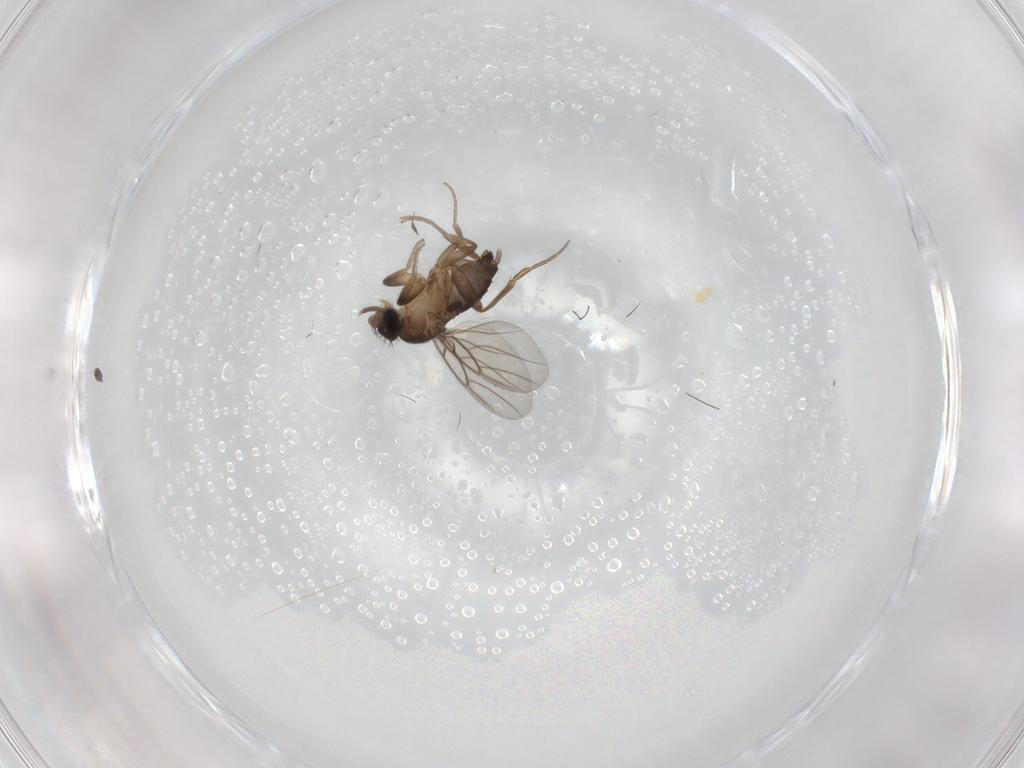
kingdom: Animalia
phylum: Arthropoda
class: Insecta
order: Diptera
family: Phoridae
